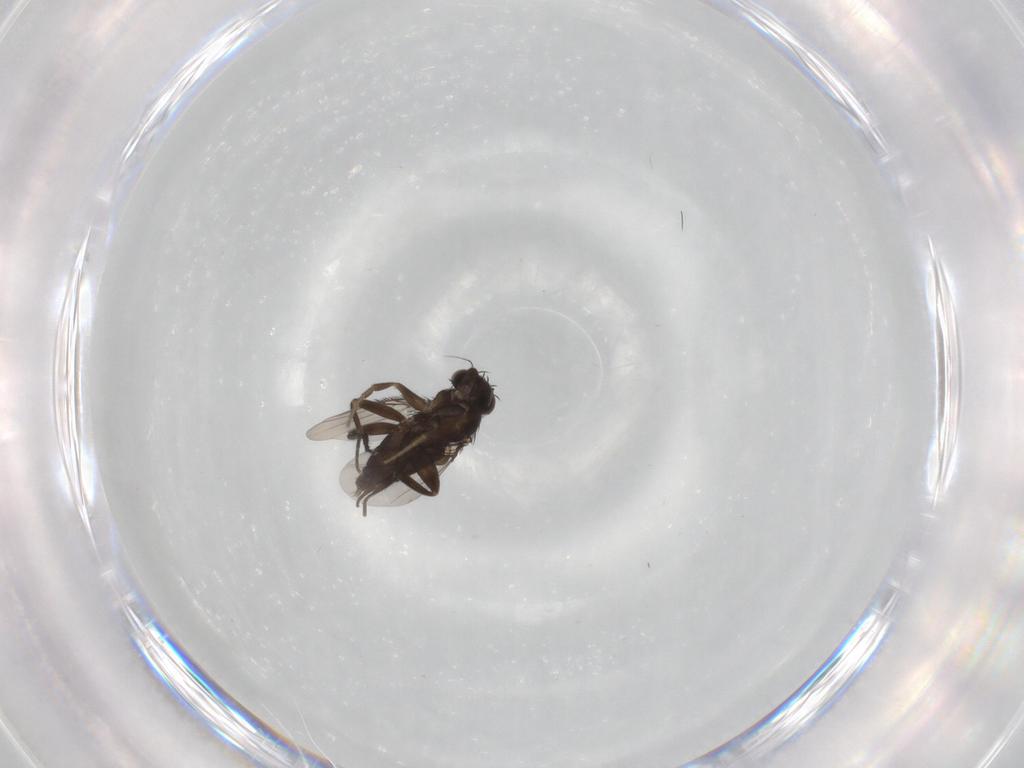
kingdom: Animalia
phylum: Arthropoda
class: Insecta
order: Diptera
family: Phoridae
